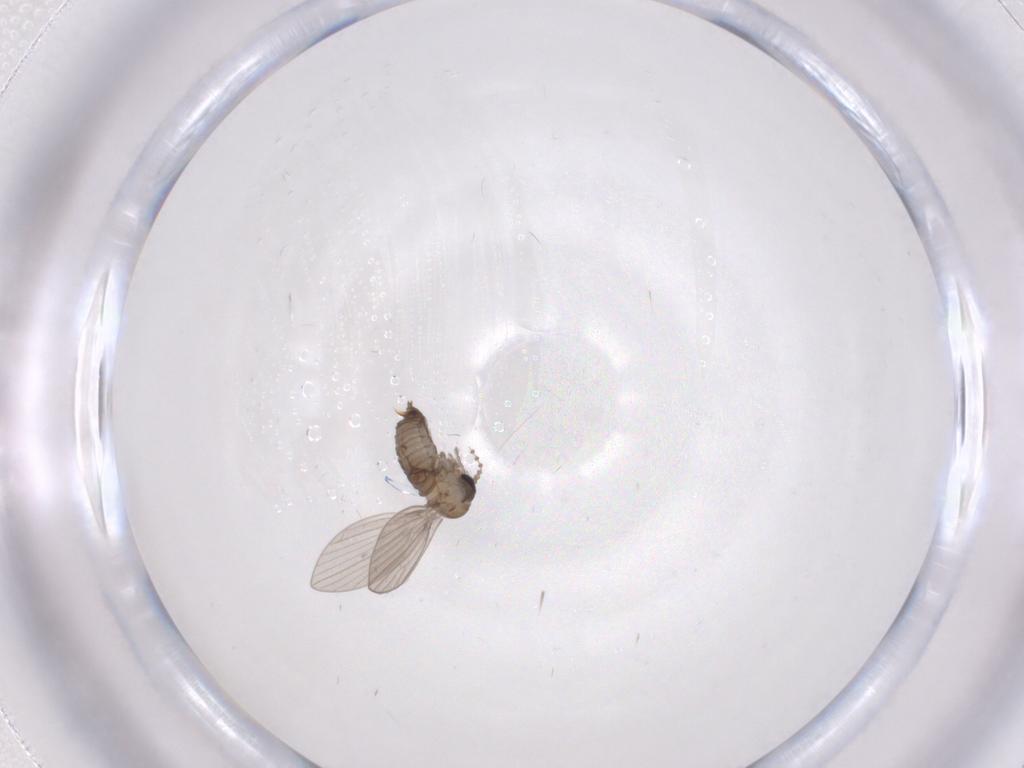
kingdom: Animalia
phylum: Arthropoda
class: Insecta
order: Diptera
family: Psychodidae
